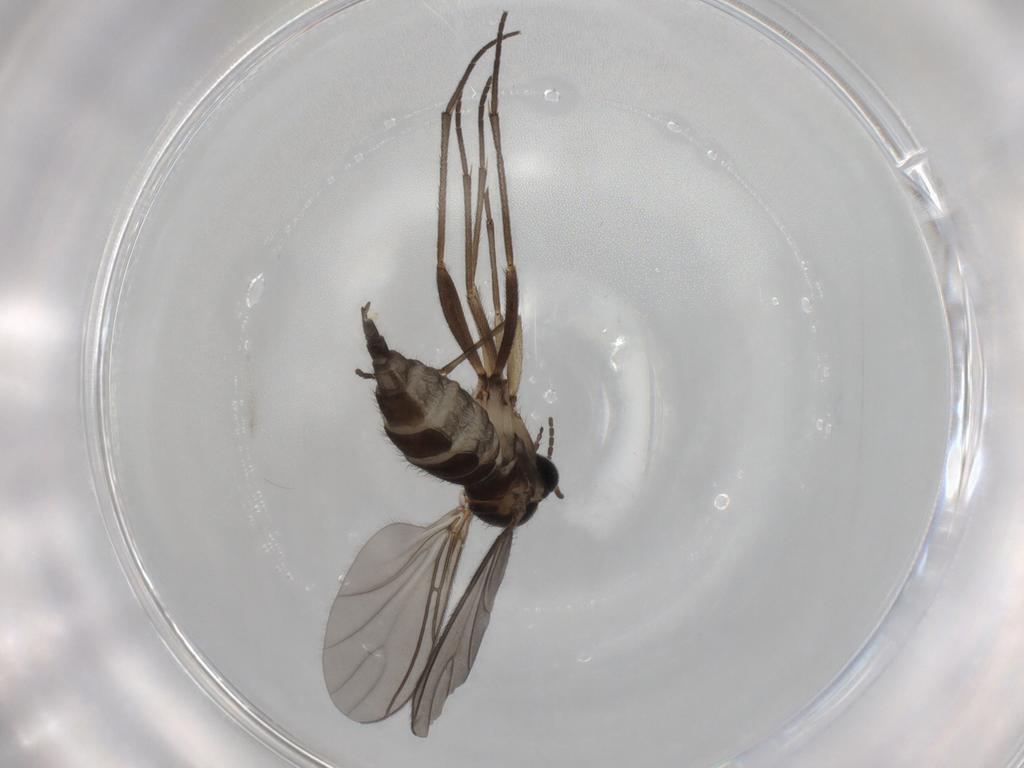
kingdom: Animalia
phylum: Arthropoda
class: Insecta
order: Diptera
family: Sciaridae
